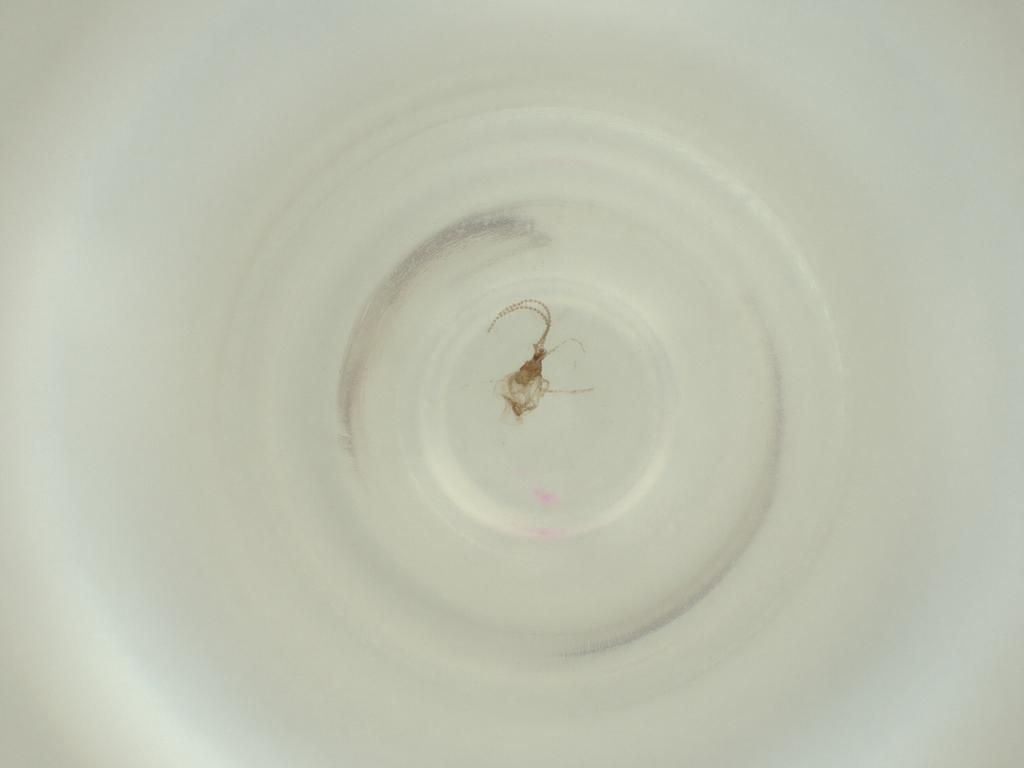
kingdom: Animalia
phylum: Arthropoda
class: Insecta
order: Diptera
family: Cecidomyiidae
